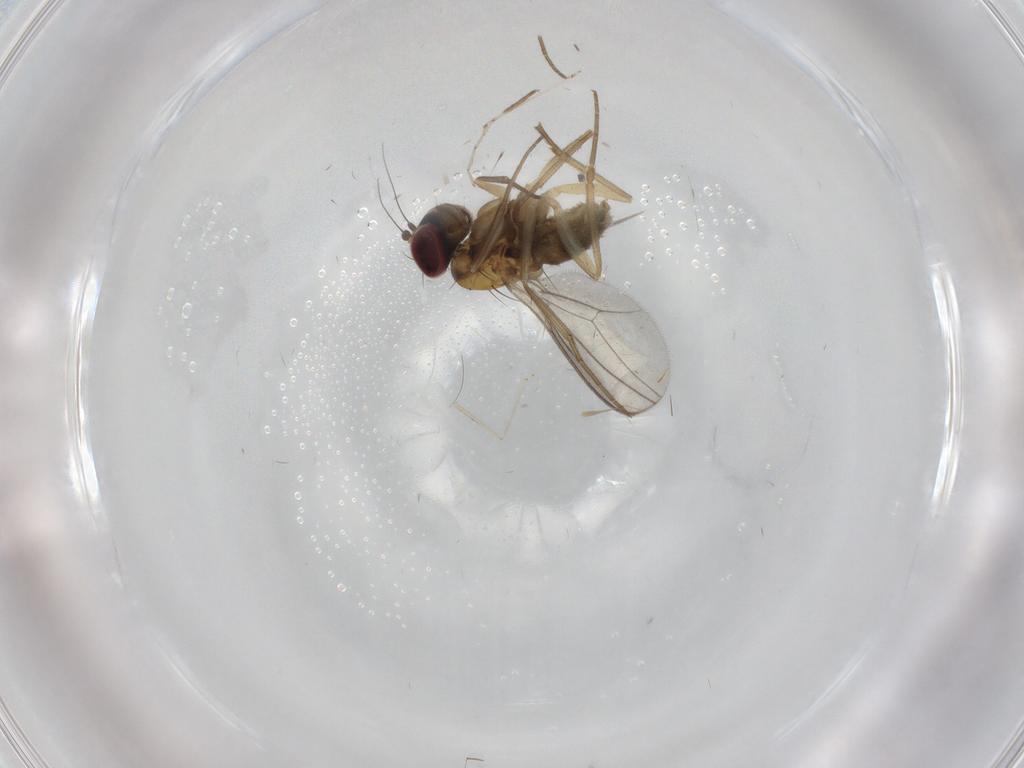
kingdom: Animalia
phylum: Arthropoda
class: Insecta
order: Diptera
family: Dolichopodidae
